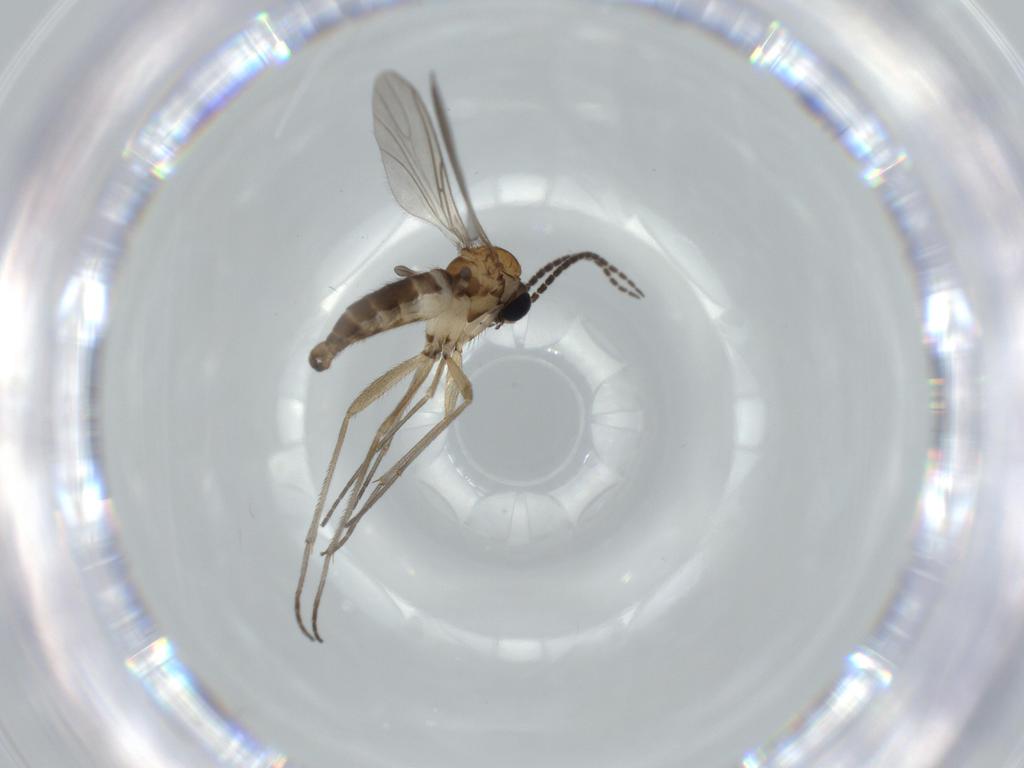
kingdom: Animalia
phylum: Arthropoda
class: Insecta
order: Diptera
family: Sciaridae
